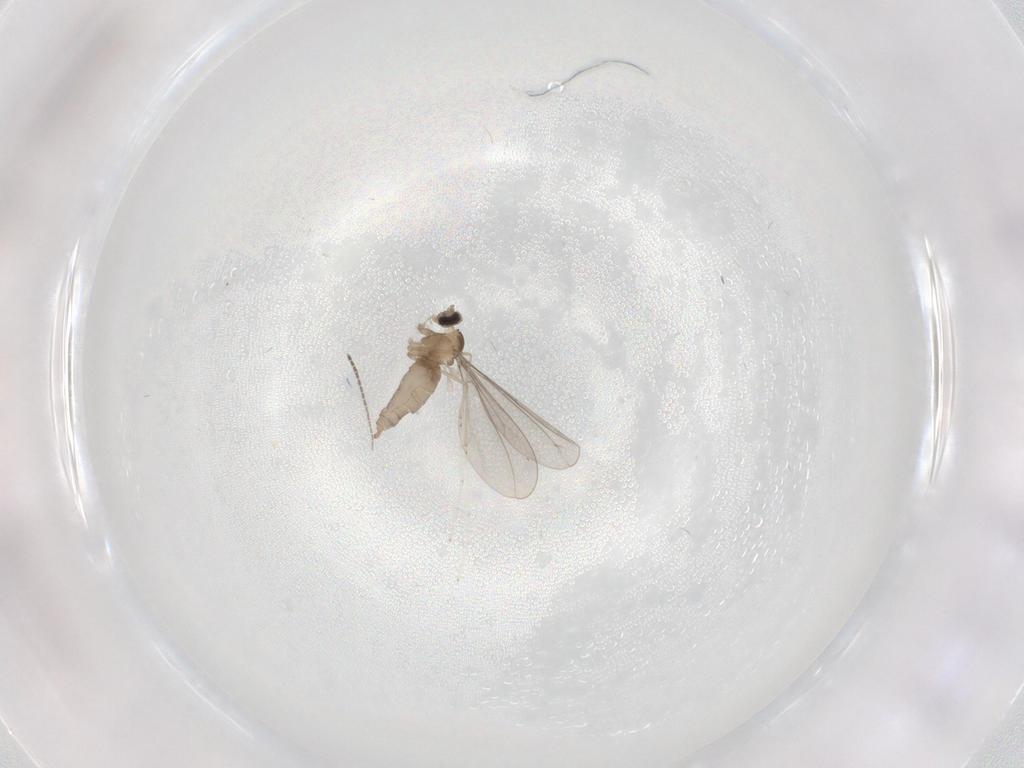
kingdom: Animalia
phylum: Arthropoda
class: Insecta
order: Diptera
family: Cecidomyiidae
